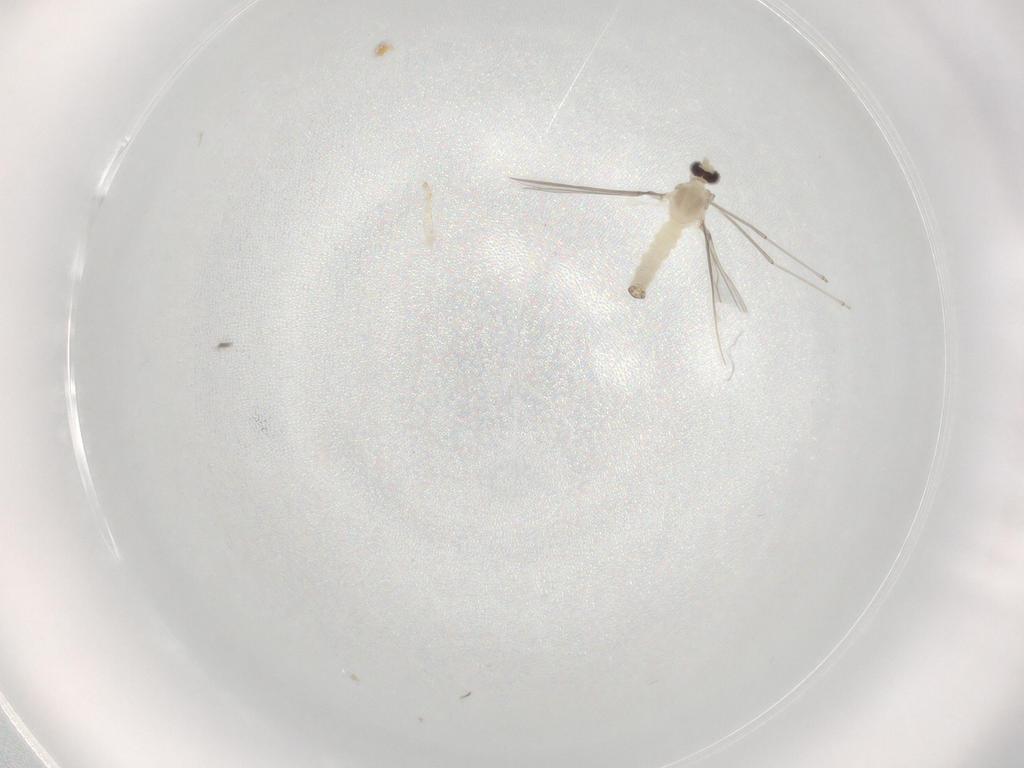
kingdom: Animalia
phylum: Arthropoda
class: Insecta
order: Diptera
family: Cecidomyiidae
